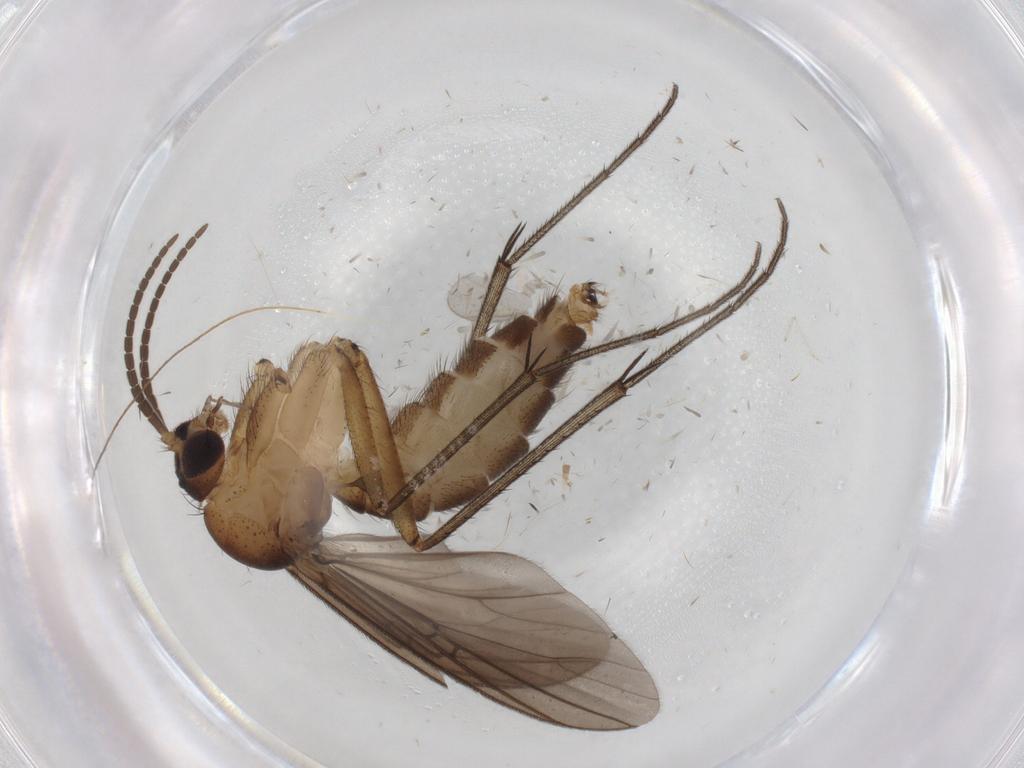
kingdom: Animalia
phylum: Arthropoda
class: Insecta
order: Diptera
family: Mycetophilidae
